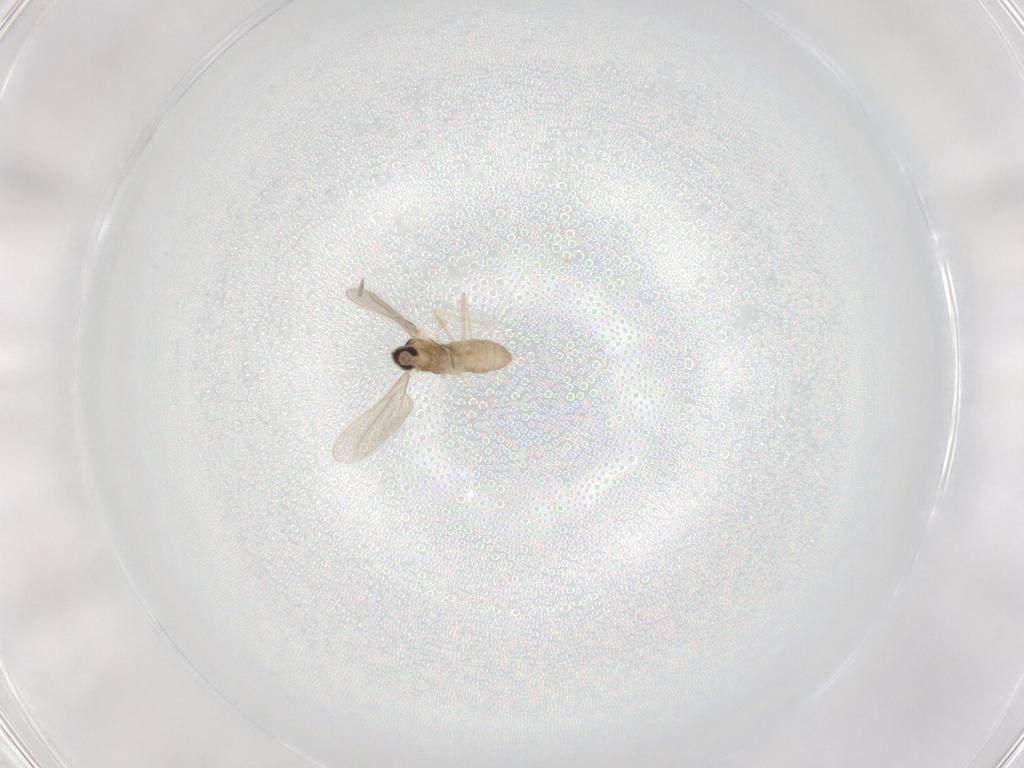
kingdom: Animalia
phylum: Arthropoda
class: Insecta
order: Diptera
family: Cecidomyiidae
